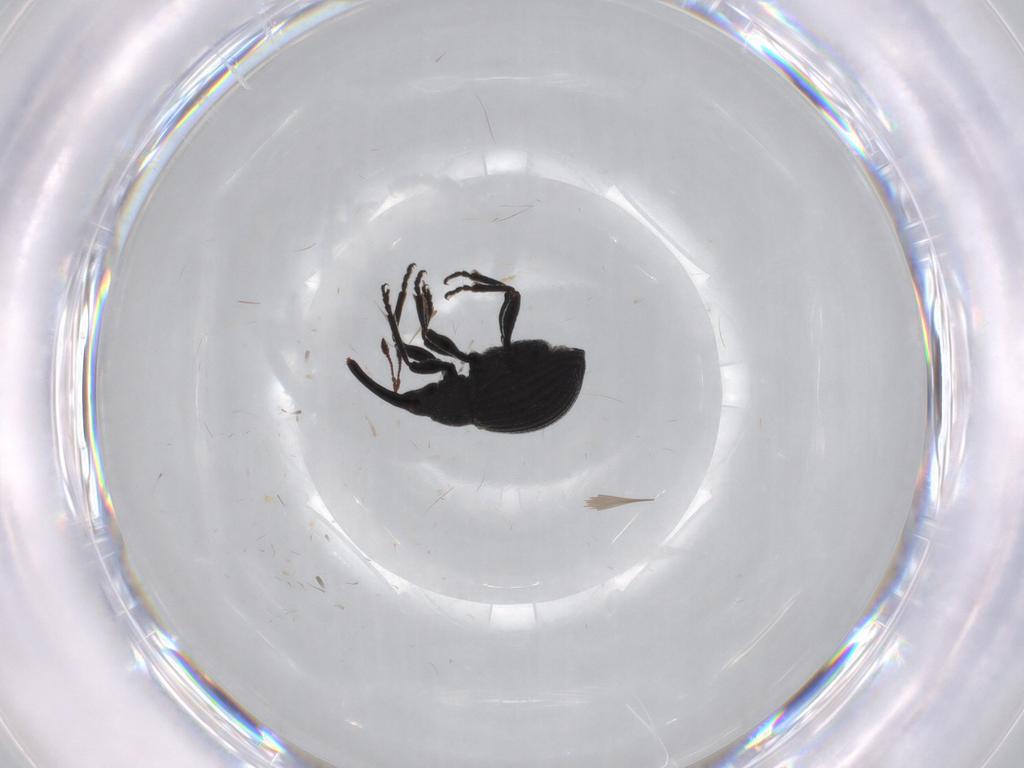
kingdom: Animalia
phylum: Arthropoda
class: Insecta
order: Coleoptera
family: Brentidae
